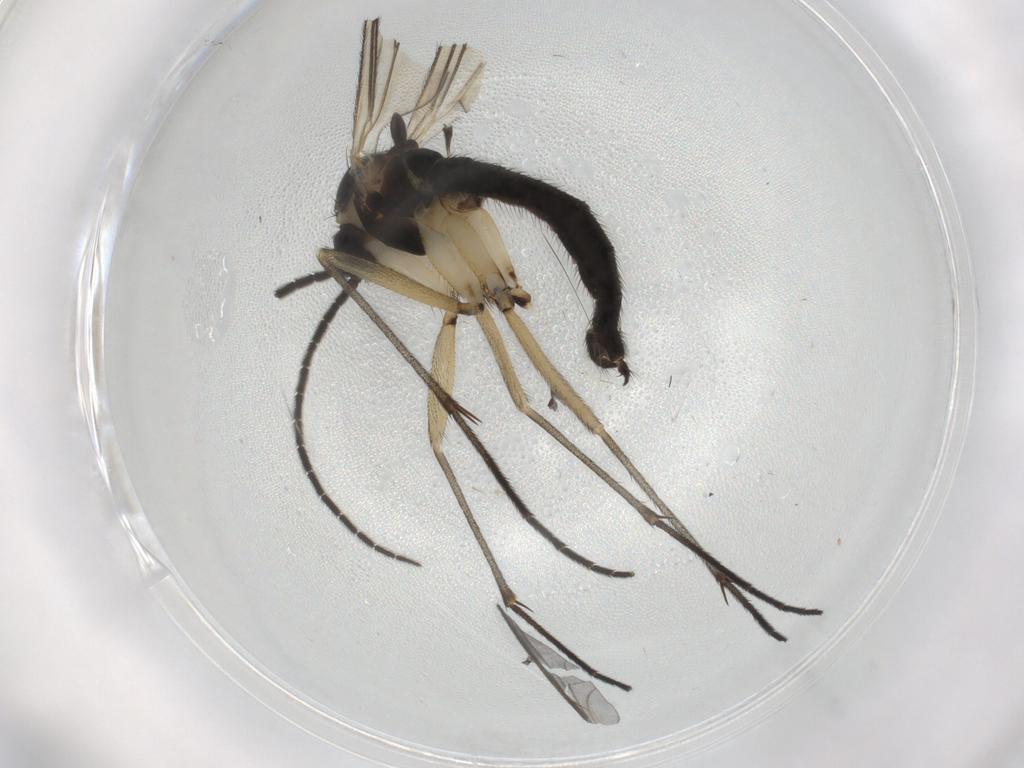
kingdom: Animalia
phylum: Arthropoda
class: Insecta
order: Diptera
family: Sciaridae
